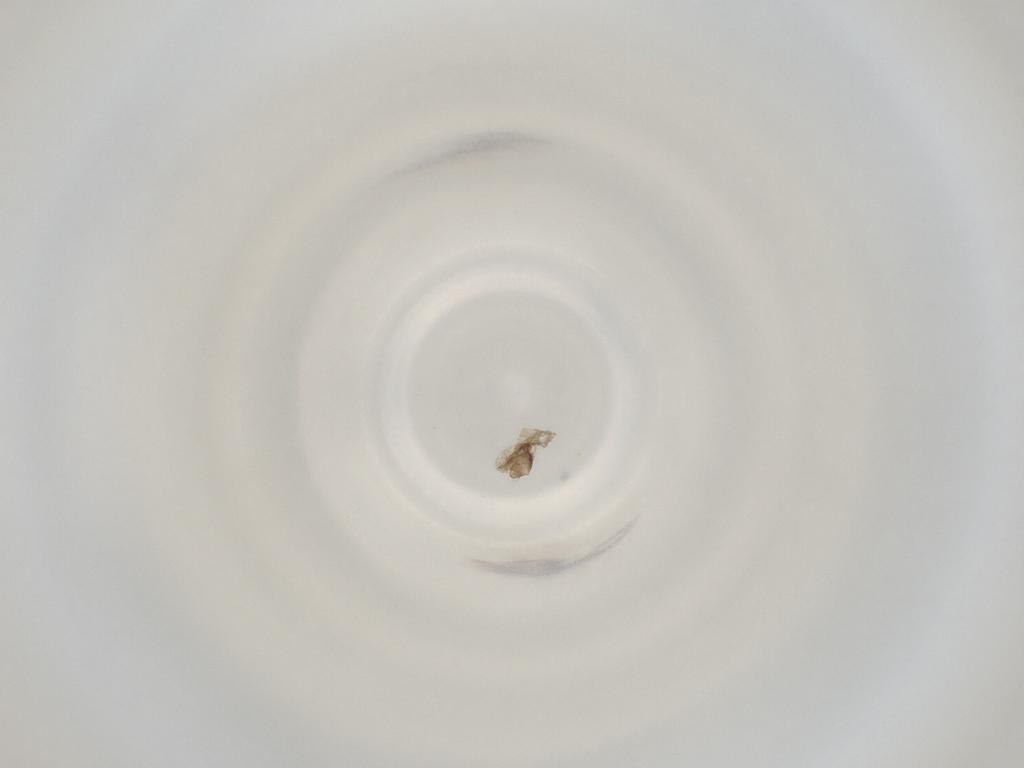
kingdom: Animalia
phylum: Arthropoda
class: Insecta
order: Diptera
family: Cecidomyiidae
